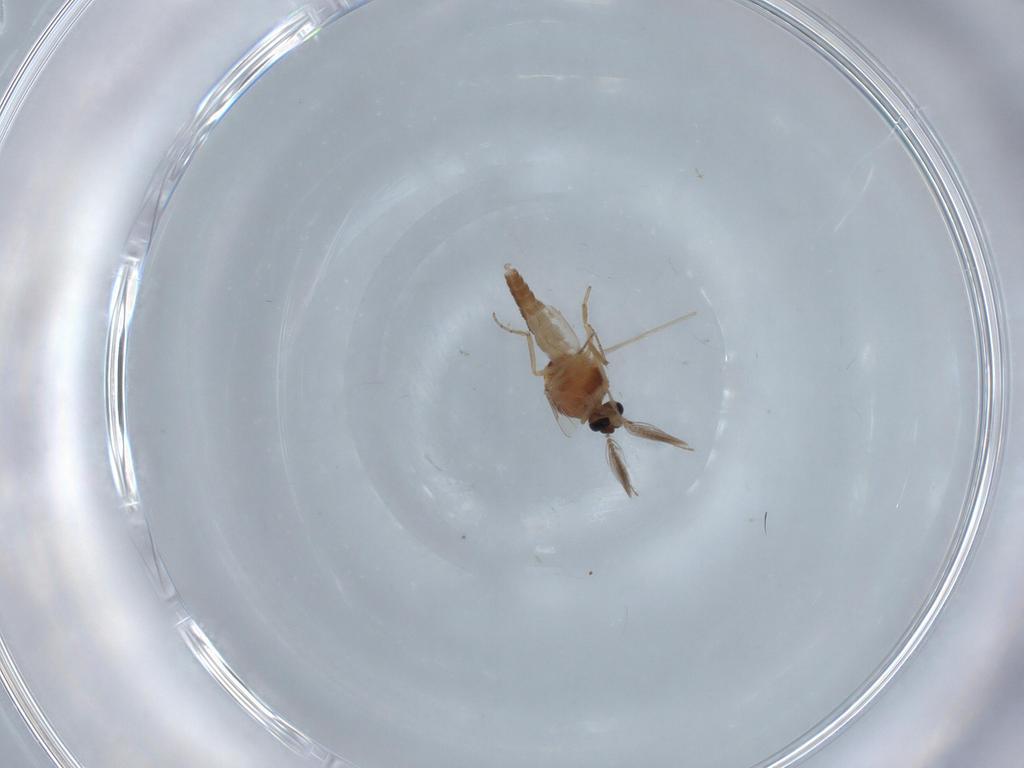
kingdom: Animalia
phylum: Arthropoda
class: Insecta
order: Diptera
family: Ceratopogonidae
